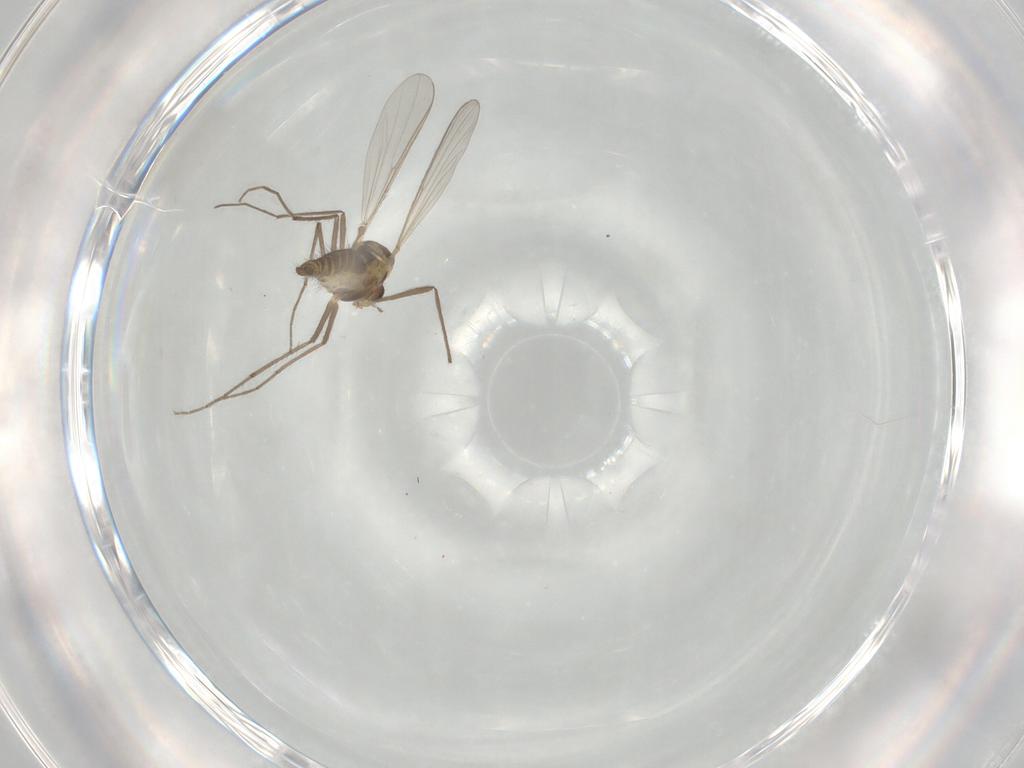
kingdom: Animalia
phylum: Arthropoda
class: Insecta
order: Diptera
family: Chironomidae
